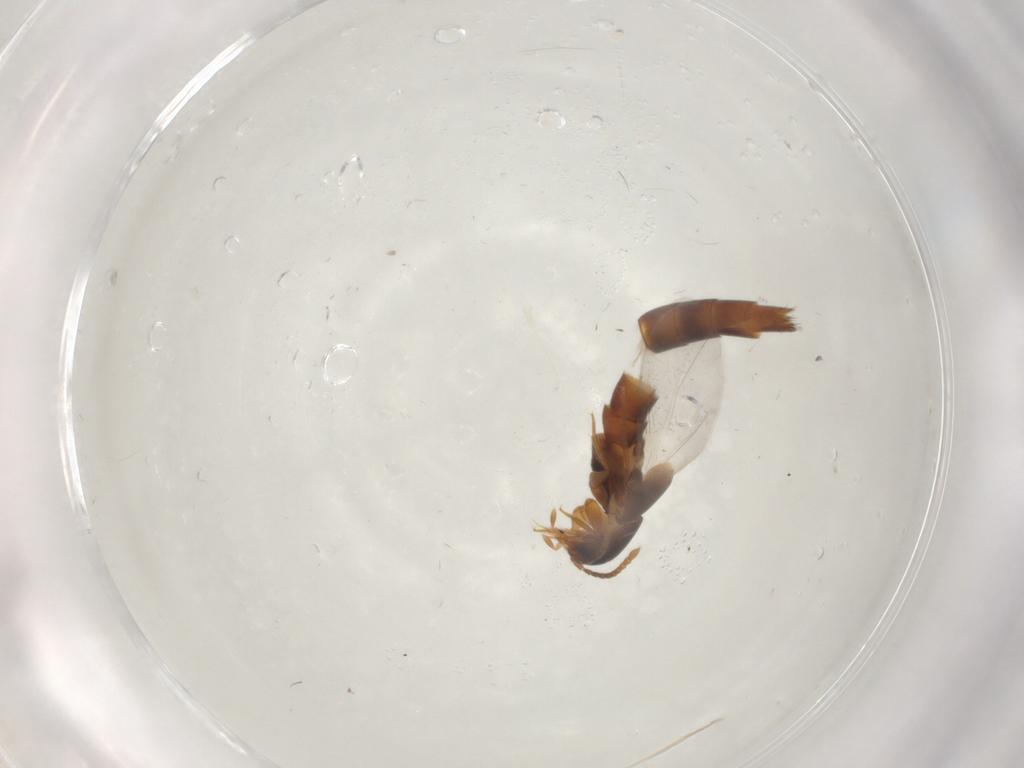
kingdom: Animalia
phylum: Arthropoda
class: Insecta
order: Coleoptera
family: Staphylinidae
